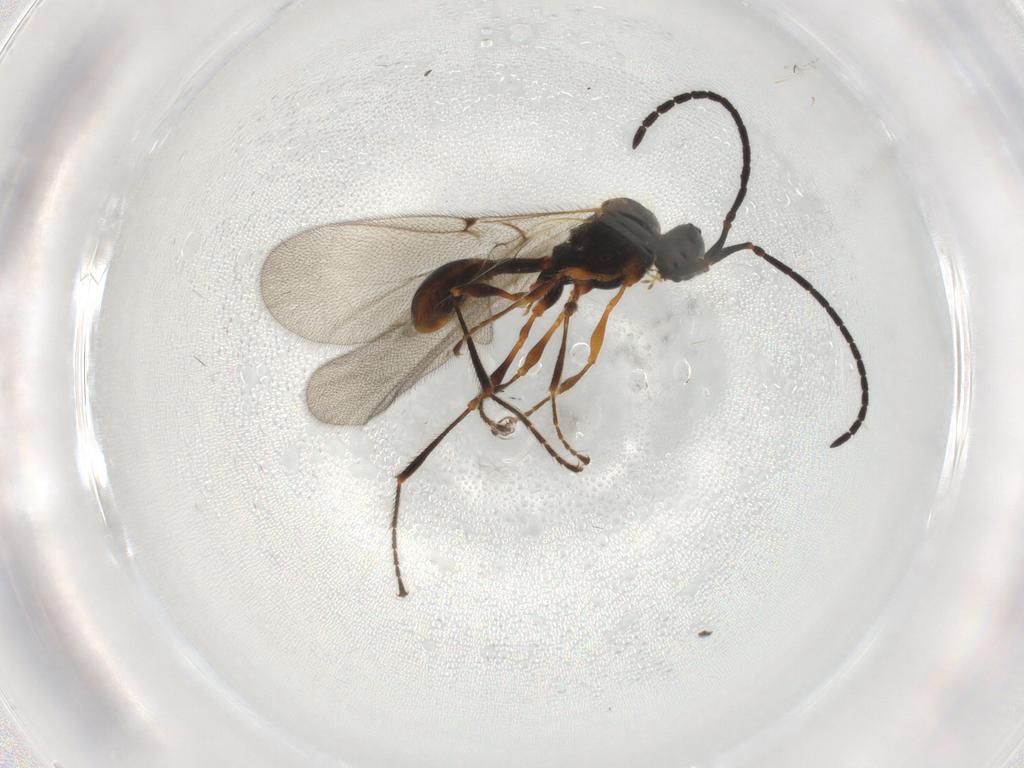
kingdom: Animalia
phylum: Arthropoda
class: Insecta
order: Hymenoptera
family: Diapriidae
